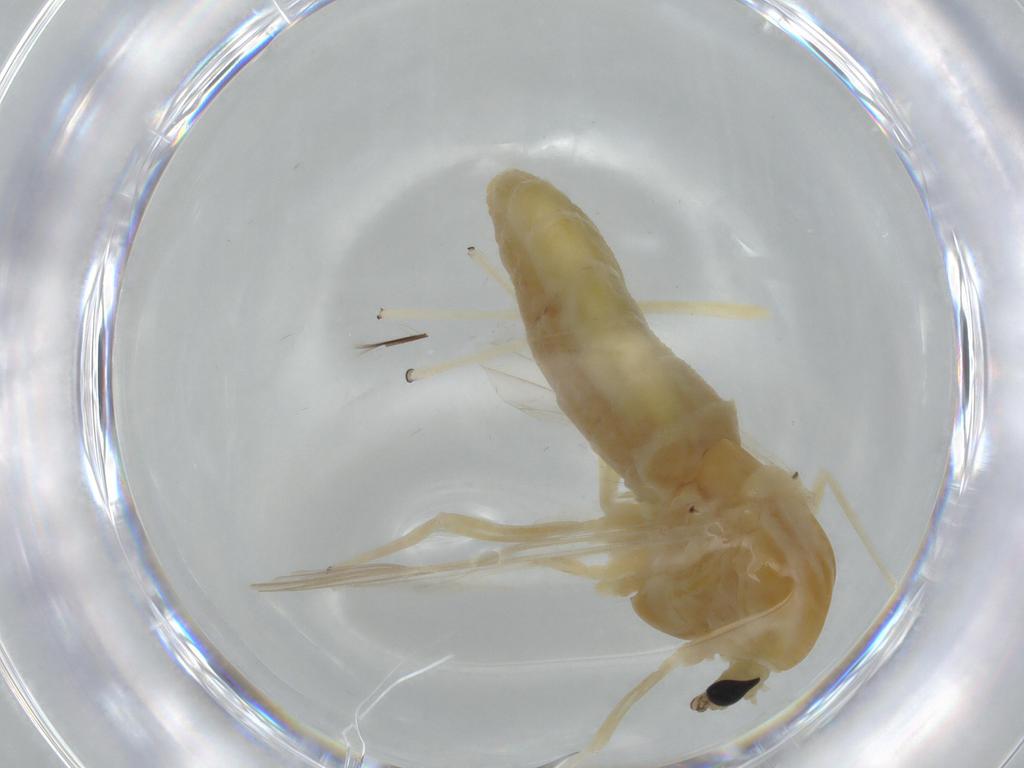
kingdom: Animalia
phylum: Arthropoda
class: Insecta
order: Diptera
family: Chironomidae
